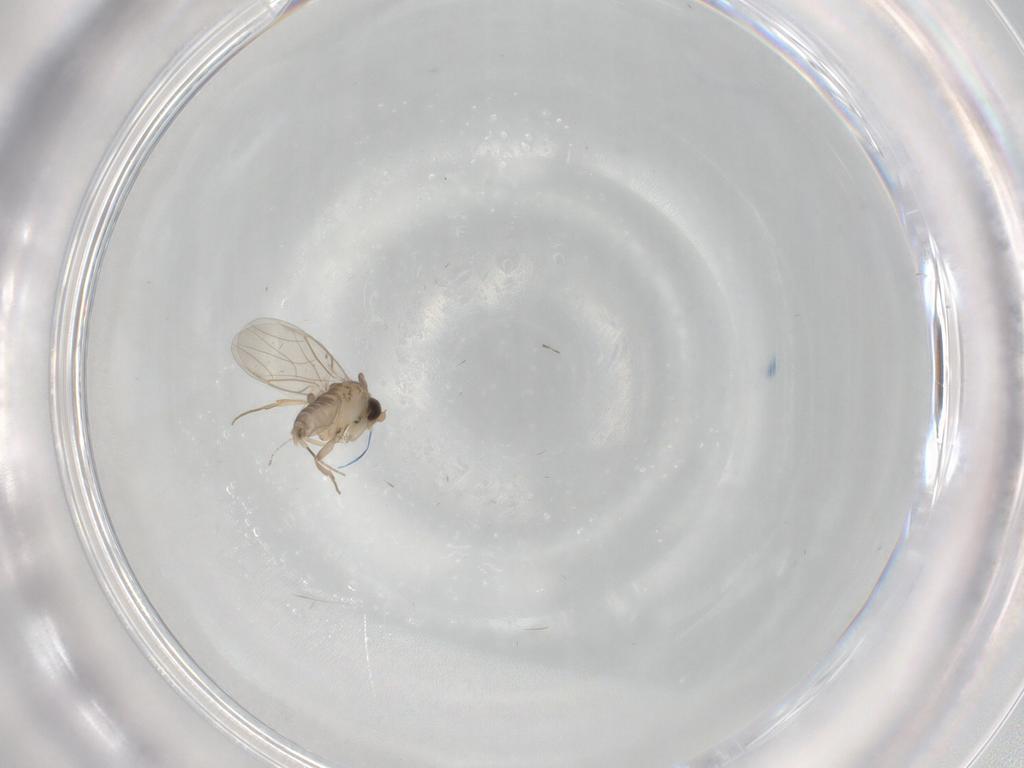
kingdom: Animalia
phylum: Arthropoda
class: Insecta
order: Diptera
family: Phoridae
